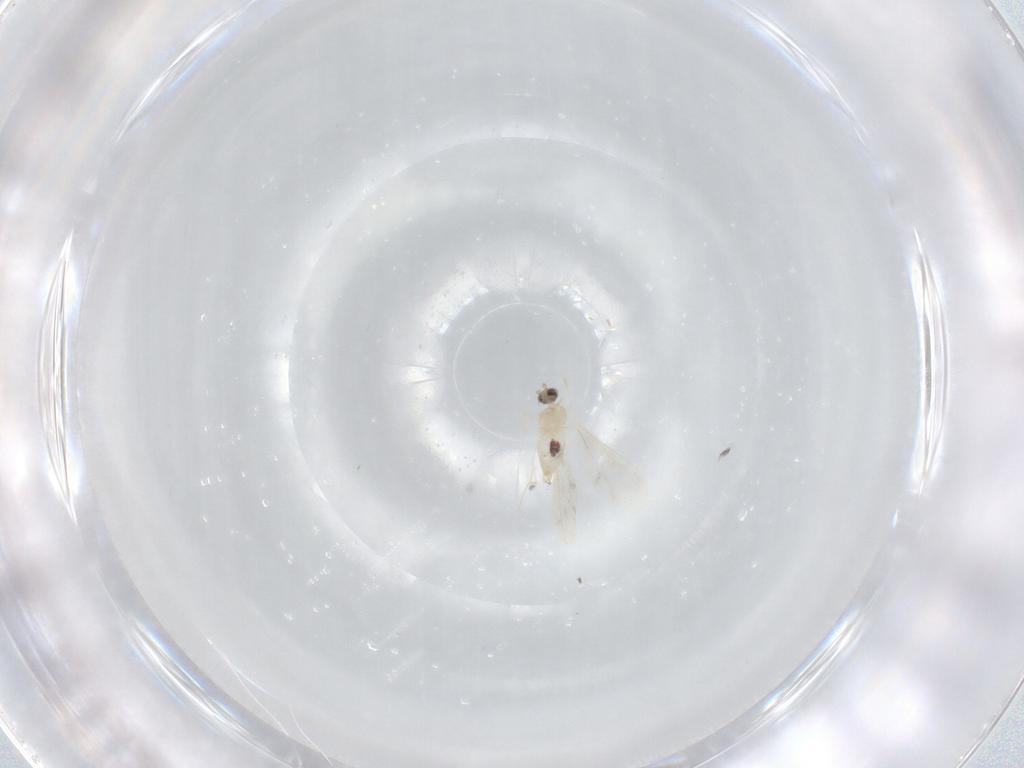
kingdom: Animalia
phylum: Arthropoda
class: Insecta
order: Diptera
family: Cecidomyiidae
